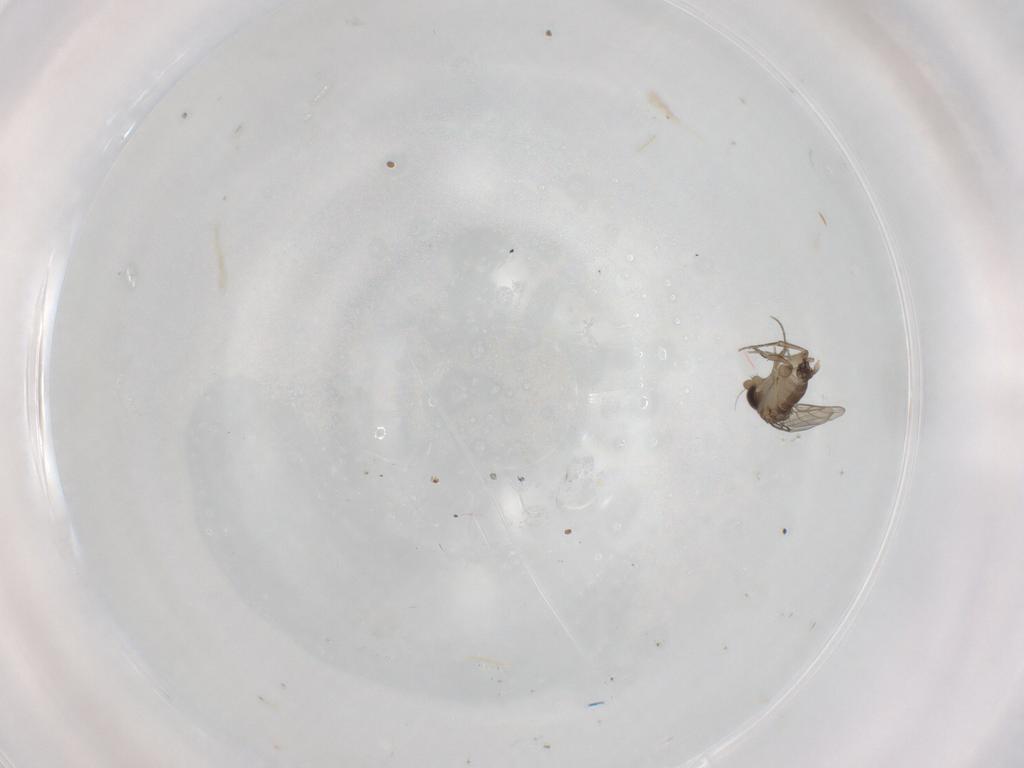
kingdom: Animalia
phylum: Arthropoda
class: Insecta
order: Diptera
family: Phoridae
